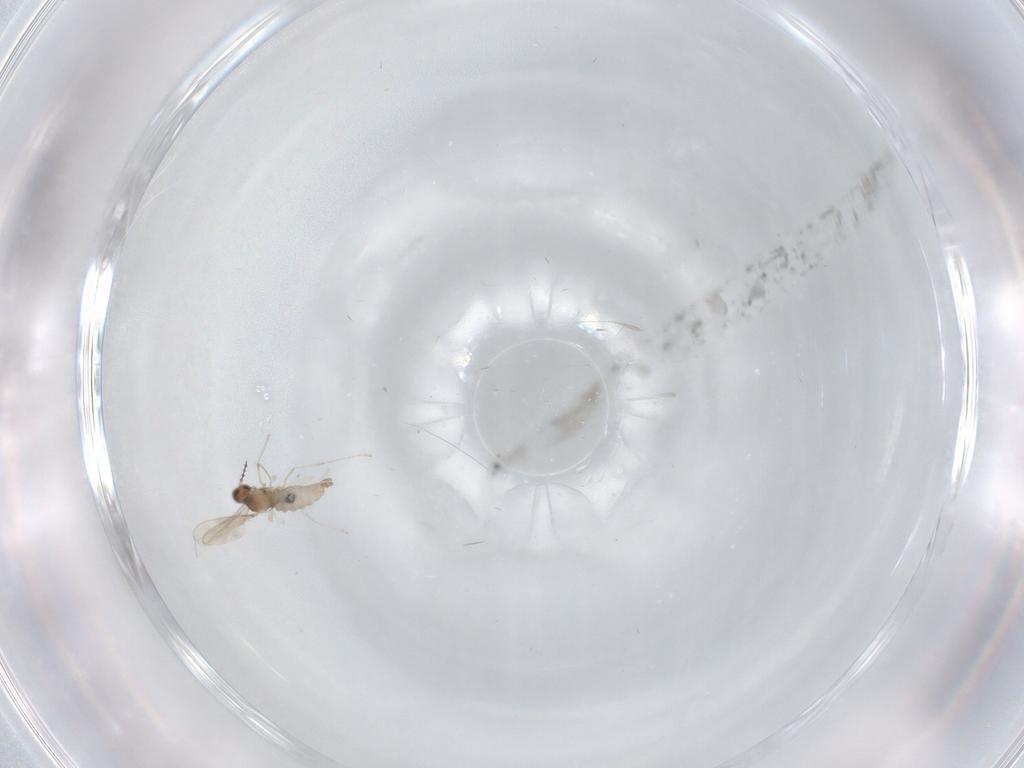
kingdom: Animalia
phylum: Arthropoda
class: Insecta
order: Diptera
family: Cecidomyiidae
